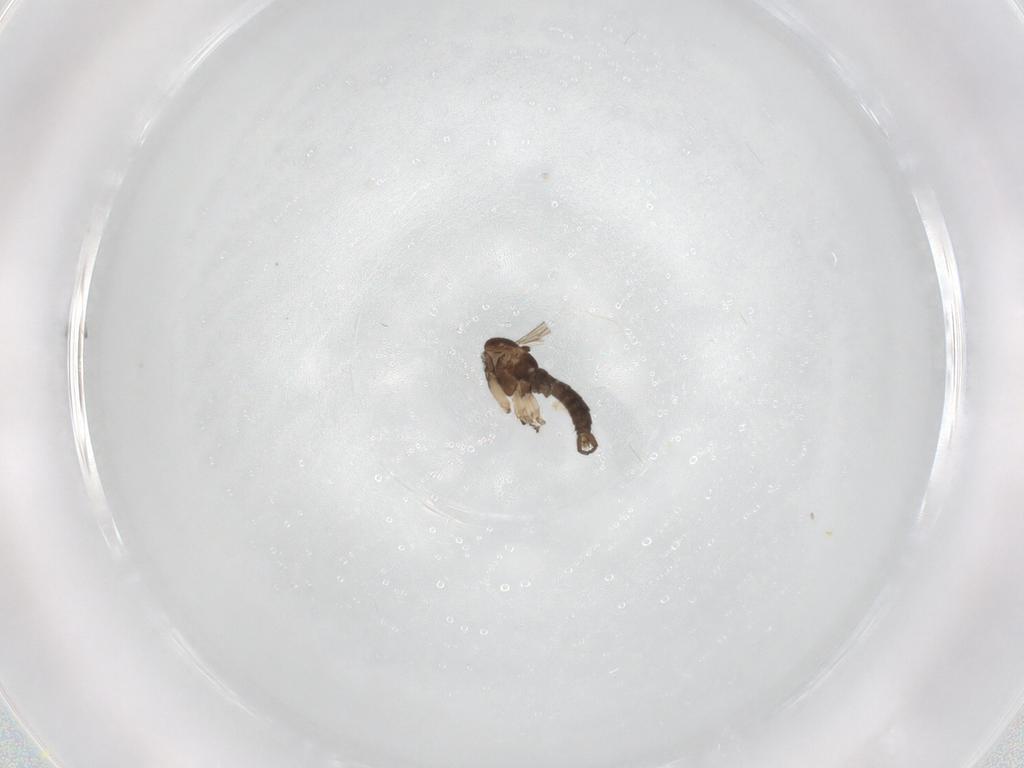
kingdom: Animalia
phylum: Arthropoda
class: Insecta
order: Diptera
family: Sciaridae
